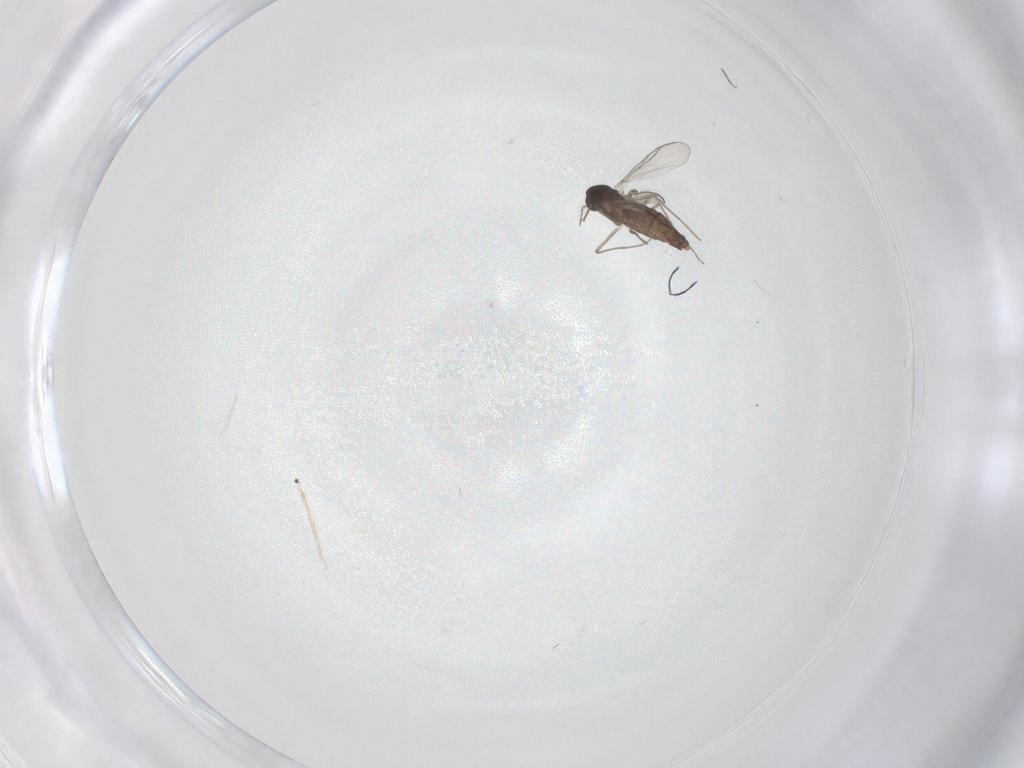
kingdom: Animalia
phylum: Arthropoda
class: Insecta
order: Diptera
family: Chironomidae
